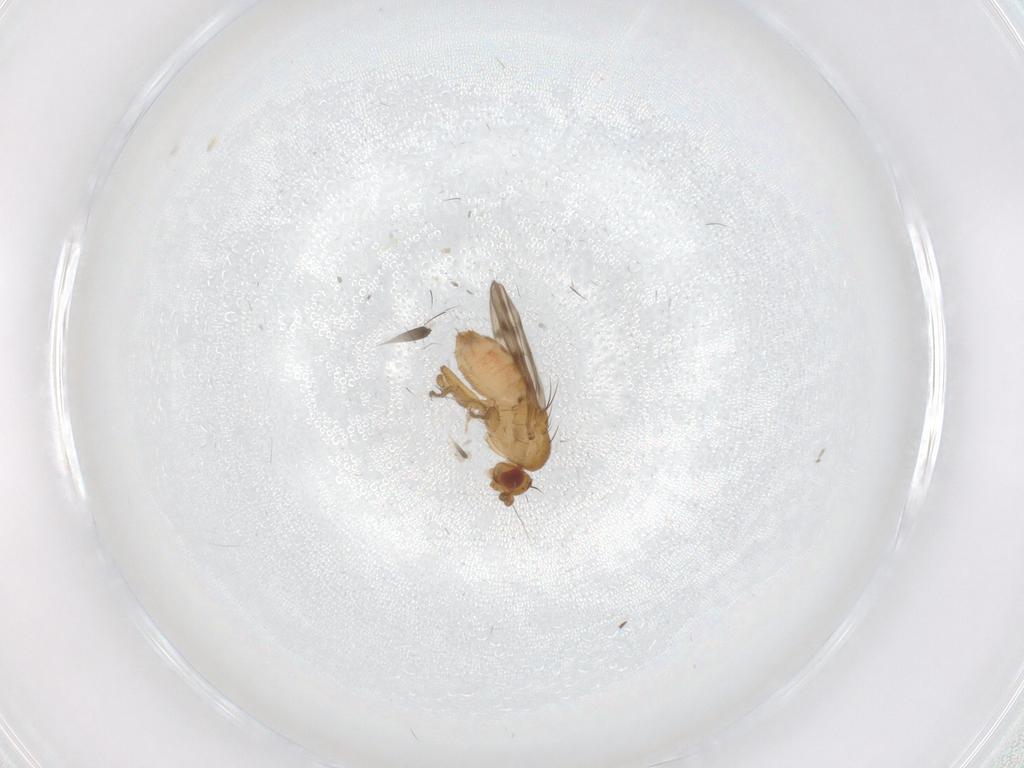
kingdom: Animalia
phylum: Arthropoda
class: Insecta
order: Diptera
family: Sphaeroceridae
